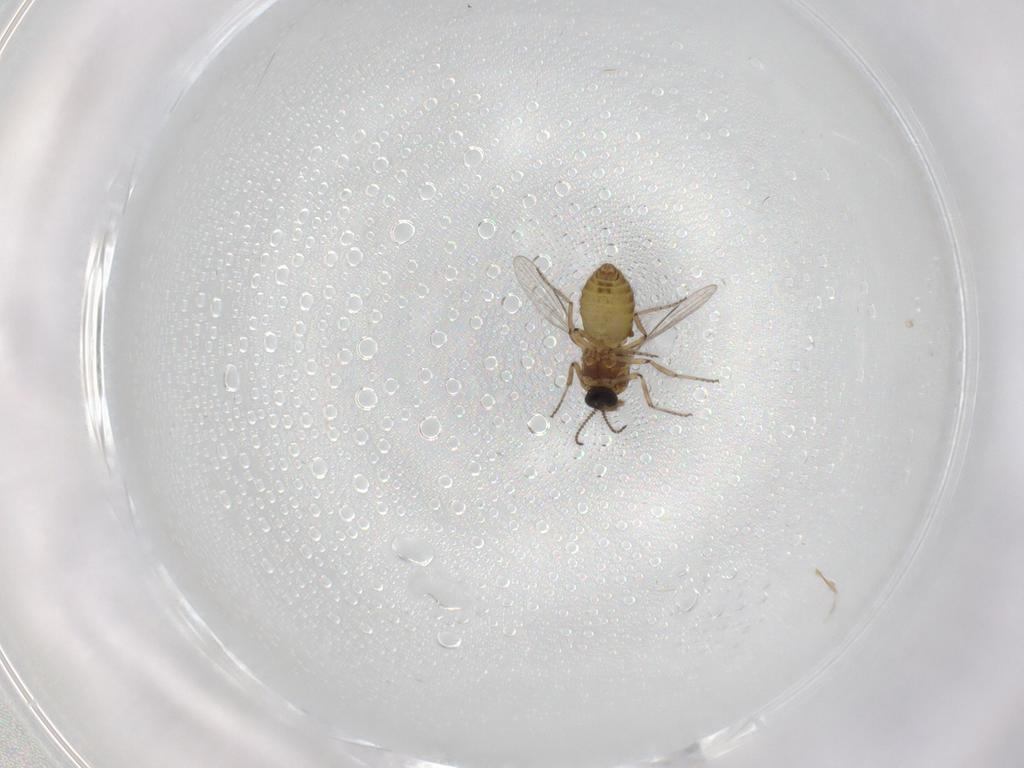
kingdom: Animalia
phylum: Arthropoda
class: Insecta
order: Diptera
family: Ceratopogonidae
